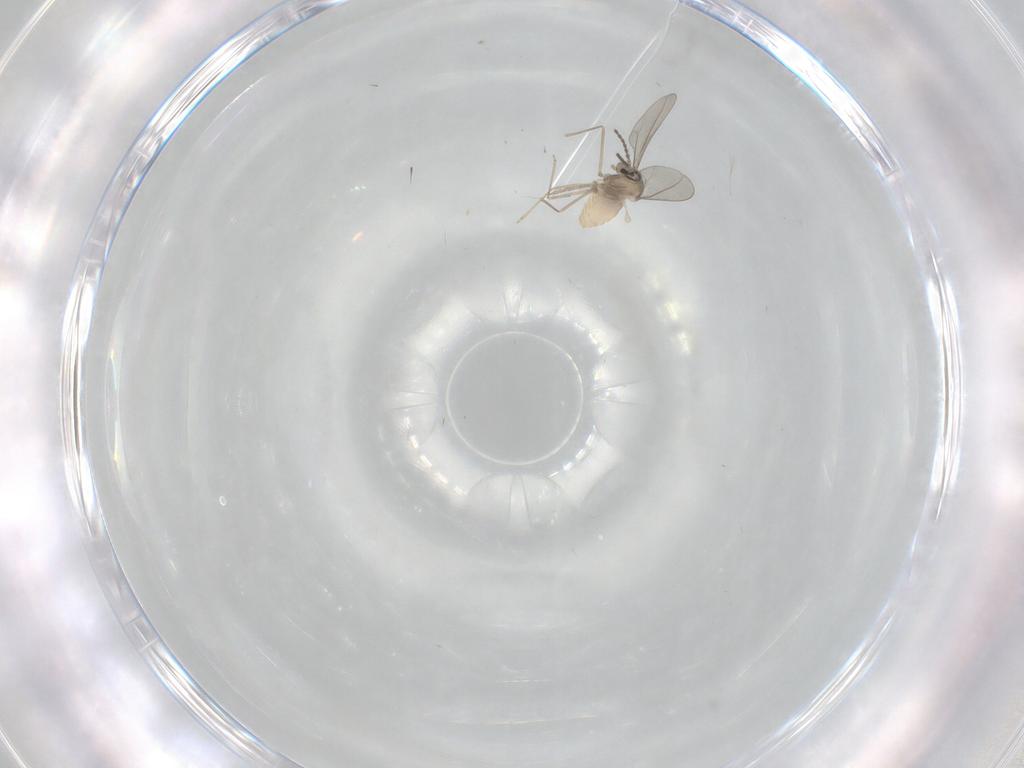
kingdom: Animalia
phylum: Arthropoda
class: Insecta
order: Diptera
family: Cecidomyiidae
